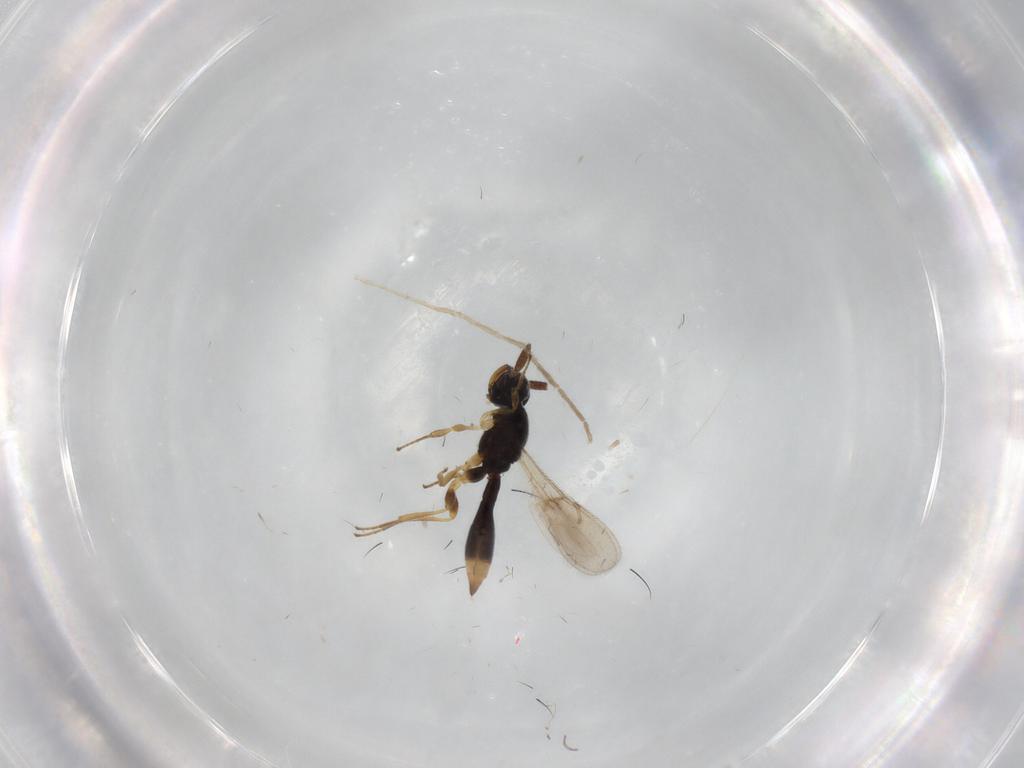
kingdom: Animalia
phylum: Arthropoda
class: Insecta
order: Hymenoptera
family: Scelionidae
